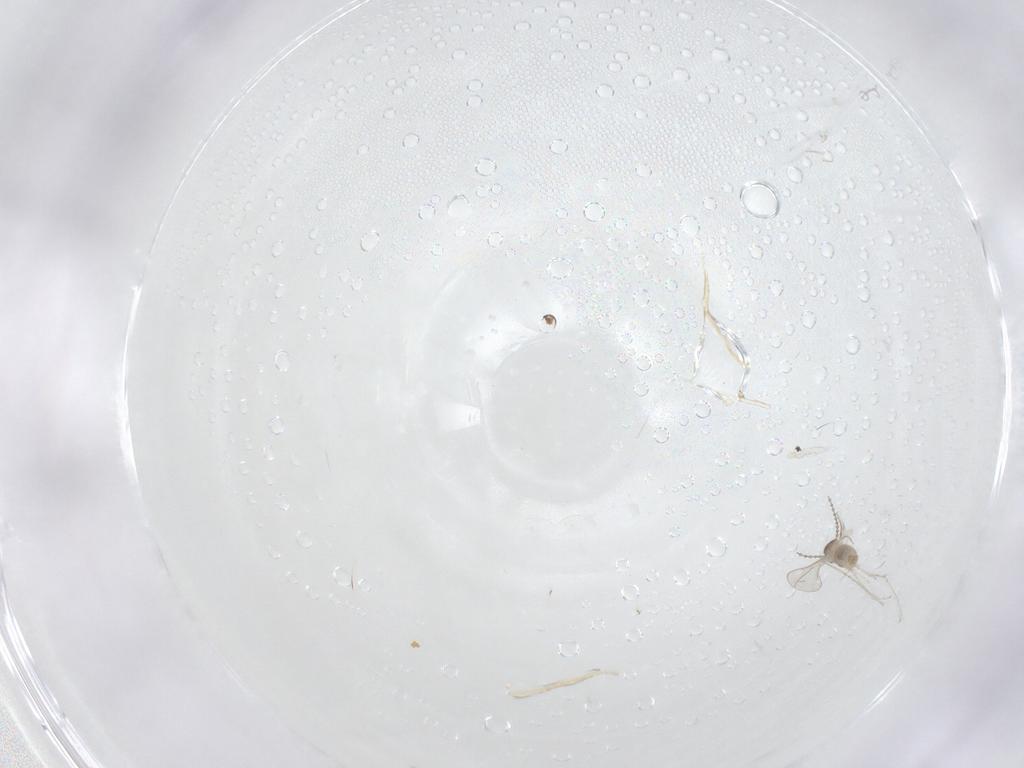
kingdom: Animalia
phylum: Arthropoda
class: Insecta
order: Diptera
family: Cecidomyiidae
